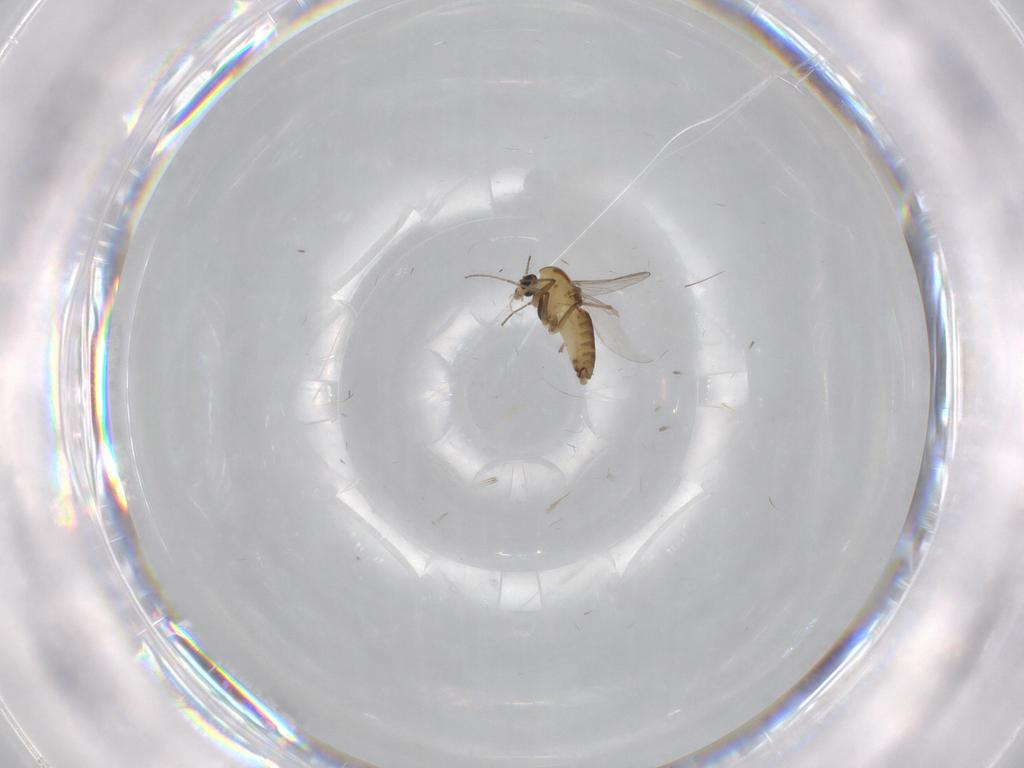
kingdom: Animalia
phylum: Arthropoda
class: Insecta
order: Diptera
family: Chironomidae
